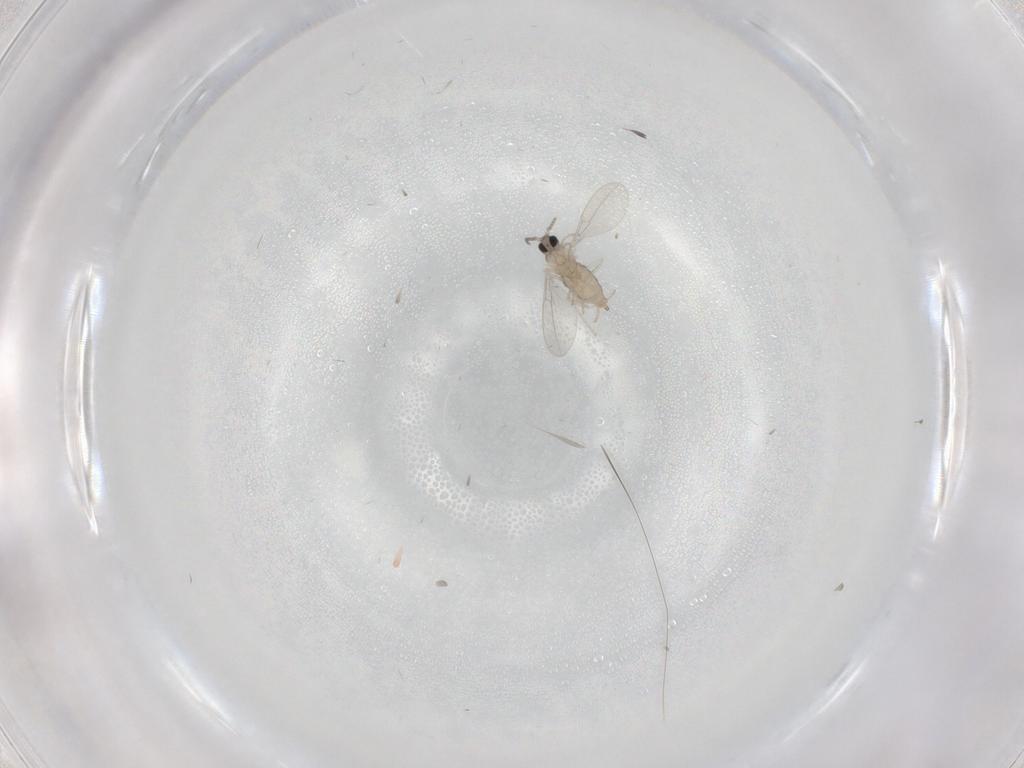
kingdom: Animalia
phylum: Arthropoda
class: Insecta
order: Diptera
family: Cecidomyiidae
